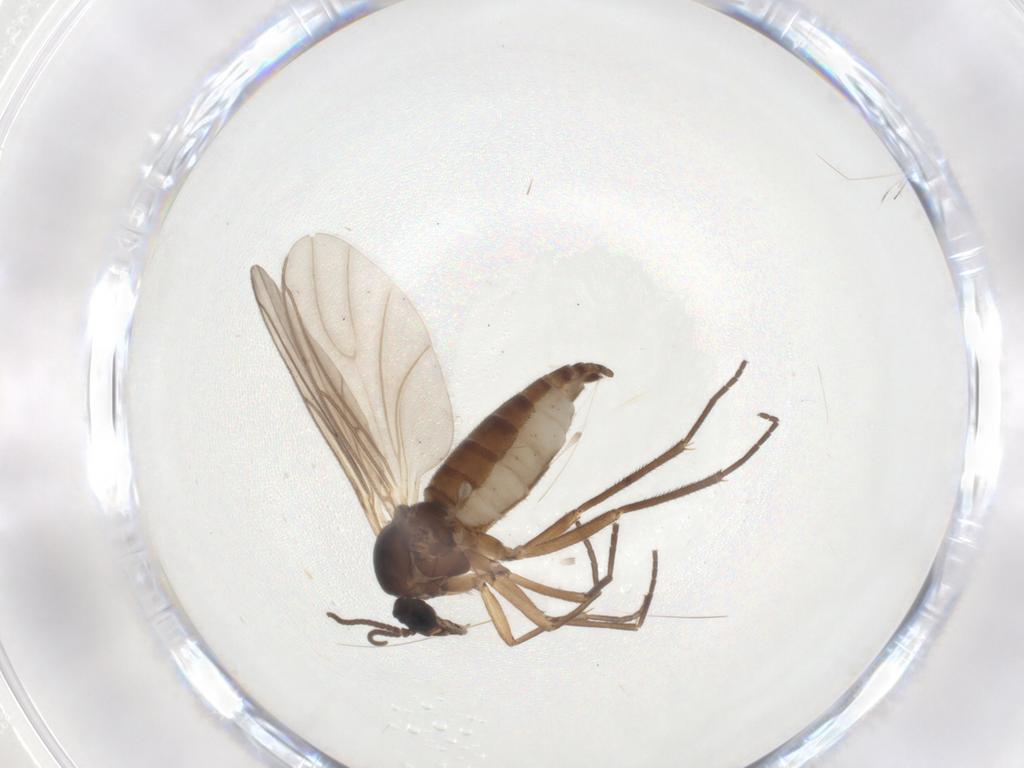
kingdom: Animalia
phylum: Arthropoda
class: Insecta
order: Diptera
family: Sciaridae
